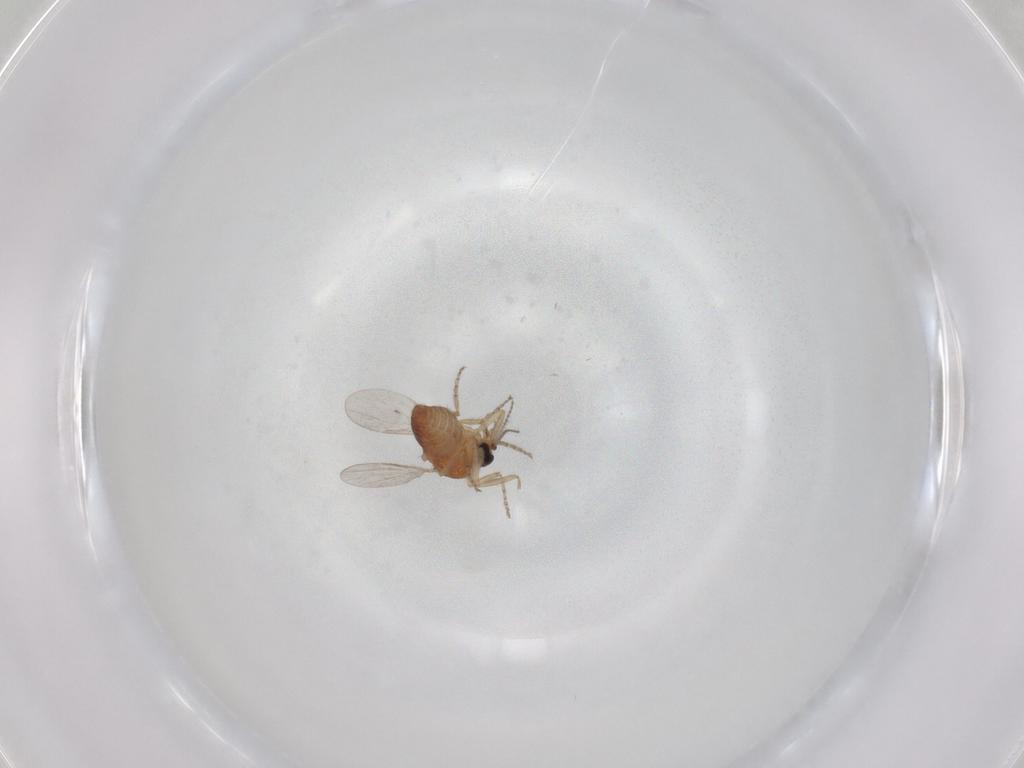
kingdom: Animalia
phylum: Arthropoda
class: Insecta
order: Diptera
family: Ceratopogonidae
